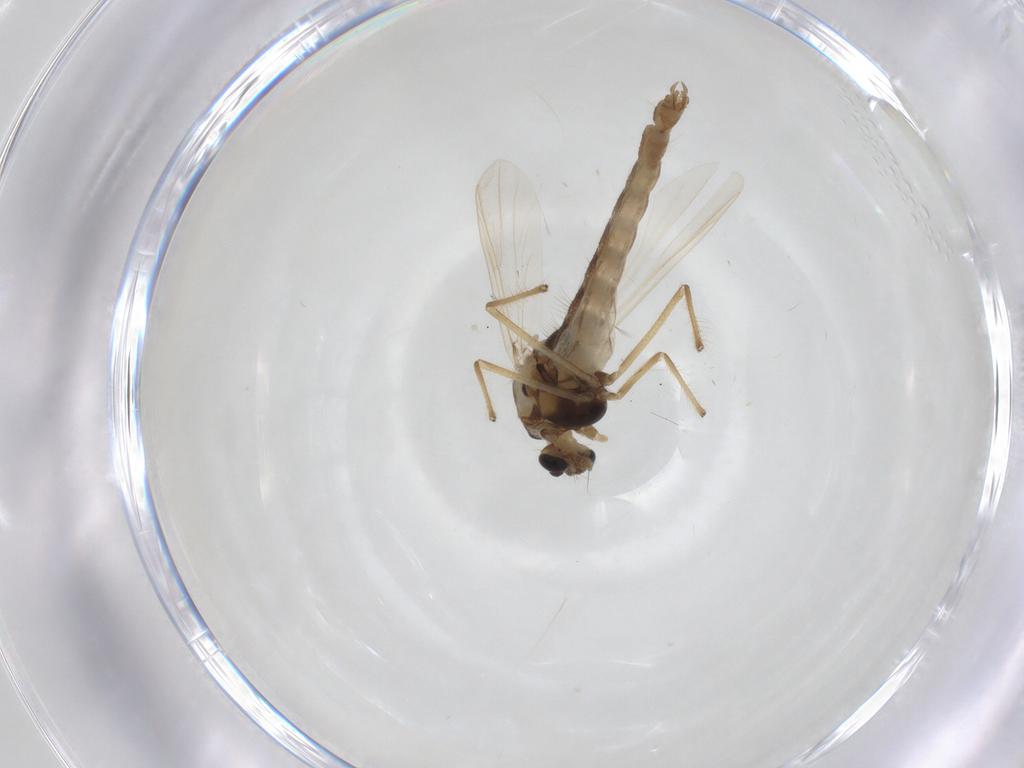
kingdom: Animalia
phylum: Arthropoda
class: Insecta
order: Diptera
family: Chironomidae
